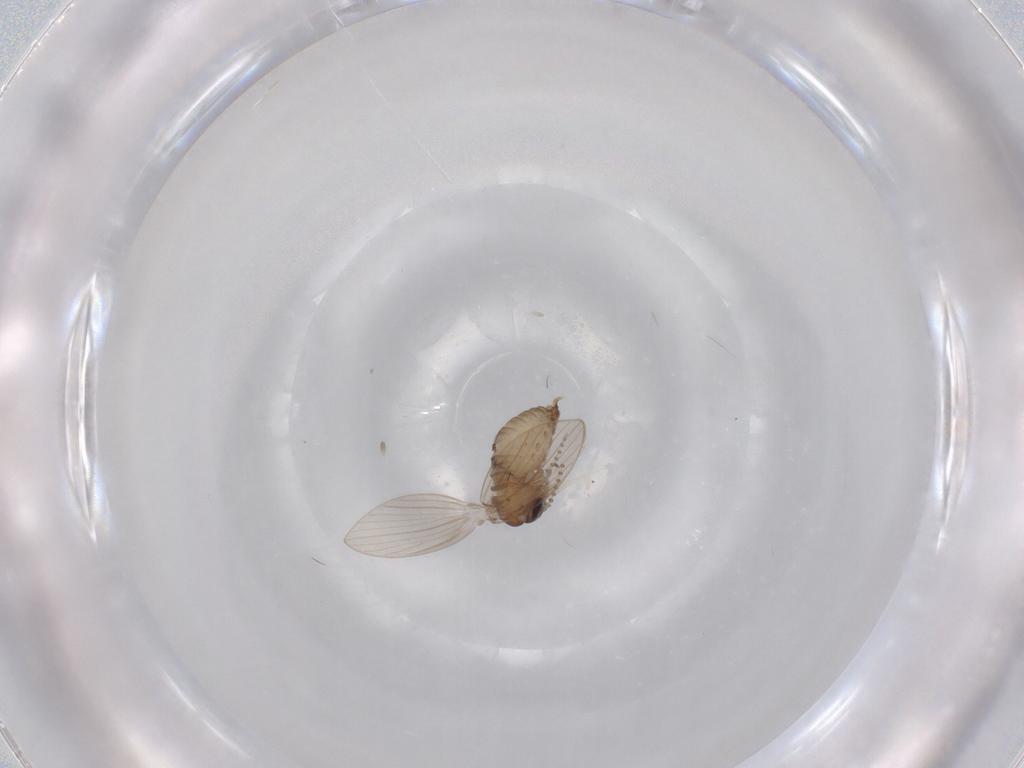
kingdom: Animalia
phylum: Arthropoda
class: Insecta
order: Diptera
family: Psychodidae
